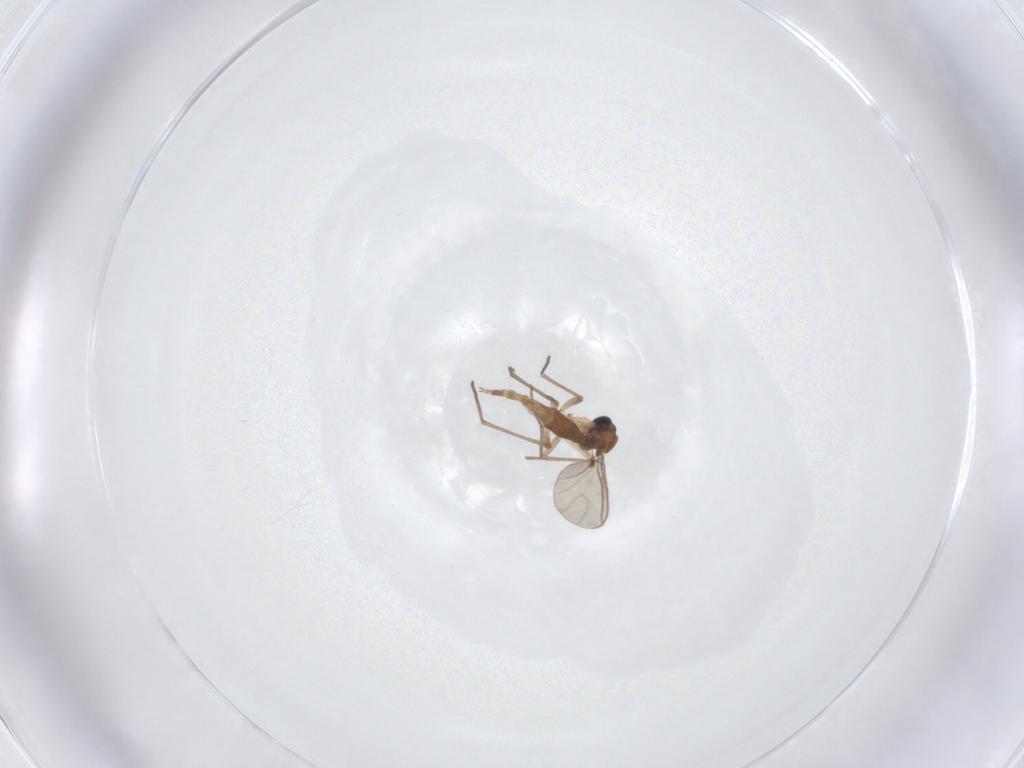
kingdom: Animalia
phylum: Arthropoda
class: Insecta
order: Diptera
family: Sciaridae
